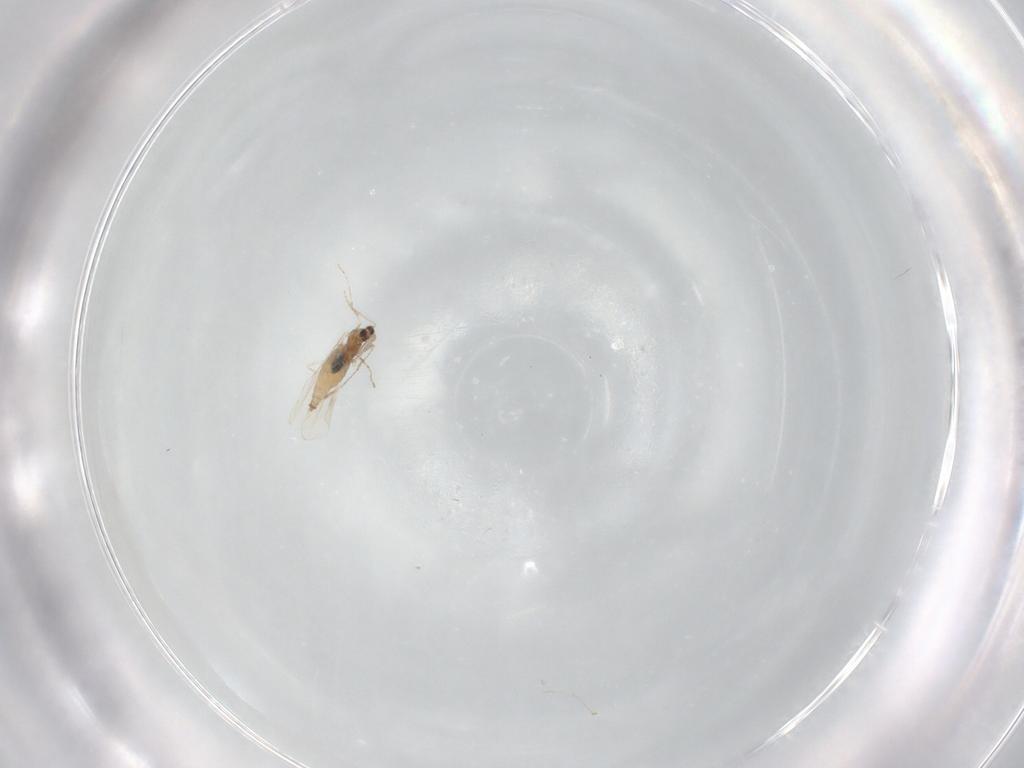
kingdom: Animalia
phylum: Arthropoda
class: Insecta
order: Diptera
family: Cecidomyiidae
